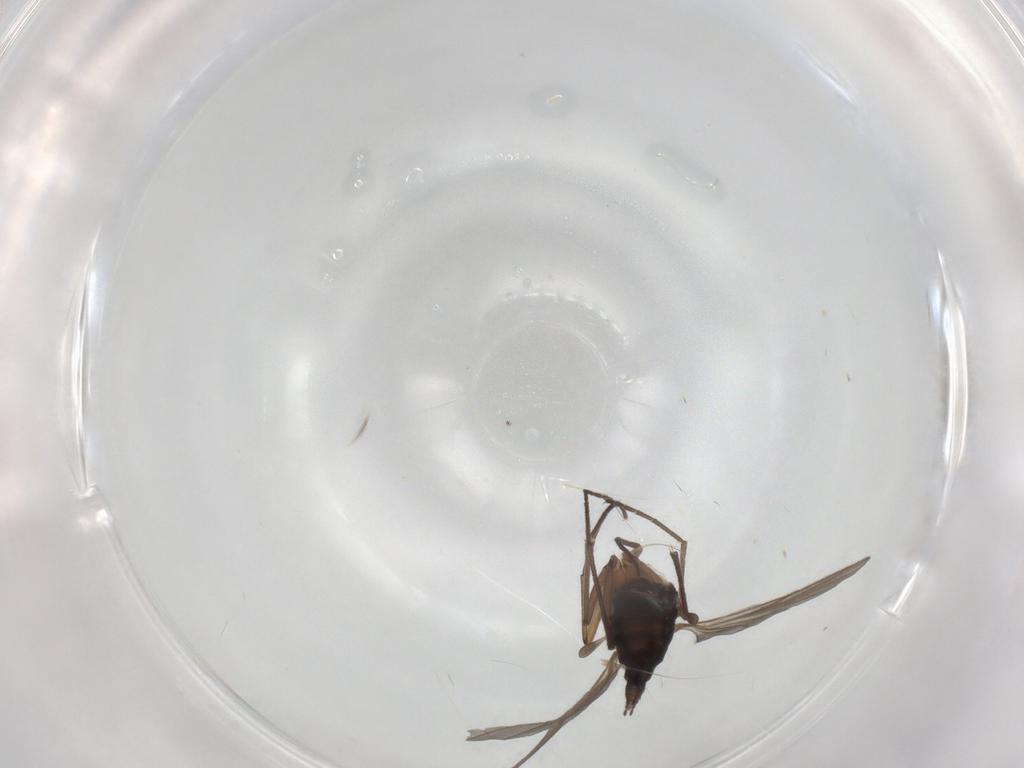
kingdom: Animalia
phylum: Arthropoda
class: Insecta
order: Diptera
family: Sciaridae
